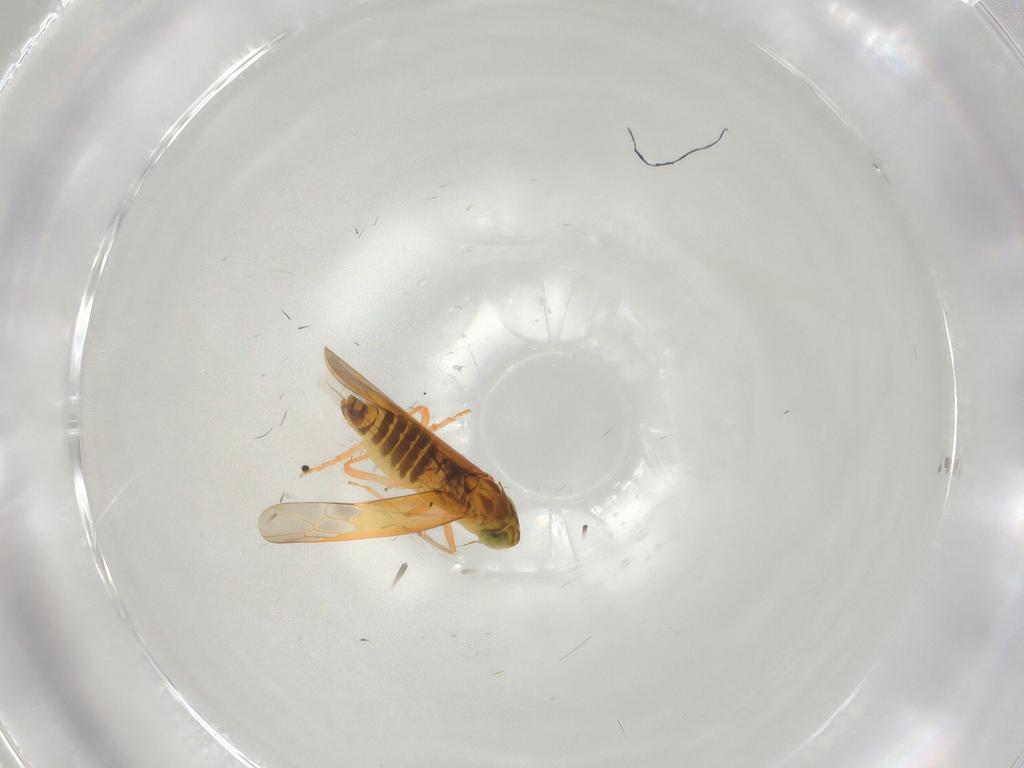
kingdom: Animalia
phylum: Arthropoda
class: Insecta
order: Hemiptera
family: Cicadellidae
